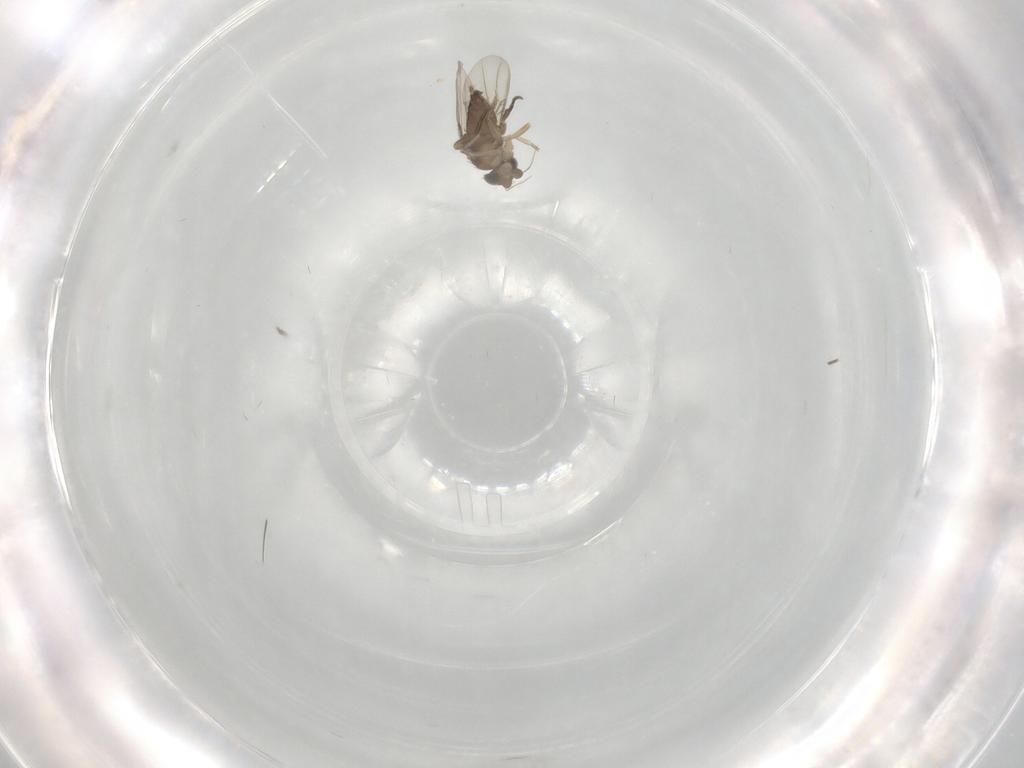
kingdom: Animalia
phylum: Arthropoda
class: Insecta
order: Diptera
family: Phoridae
